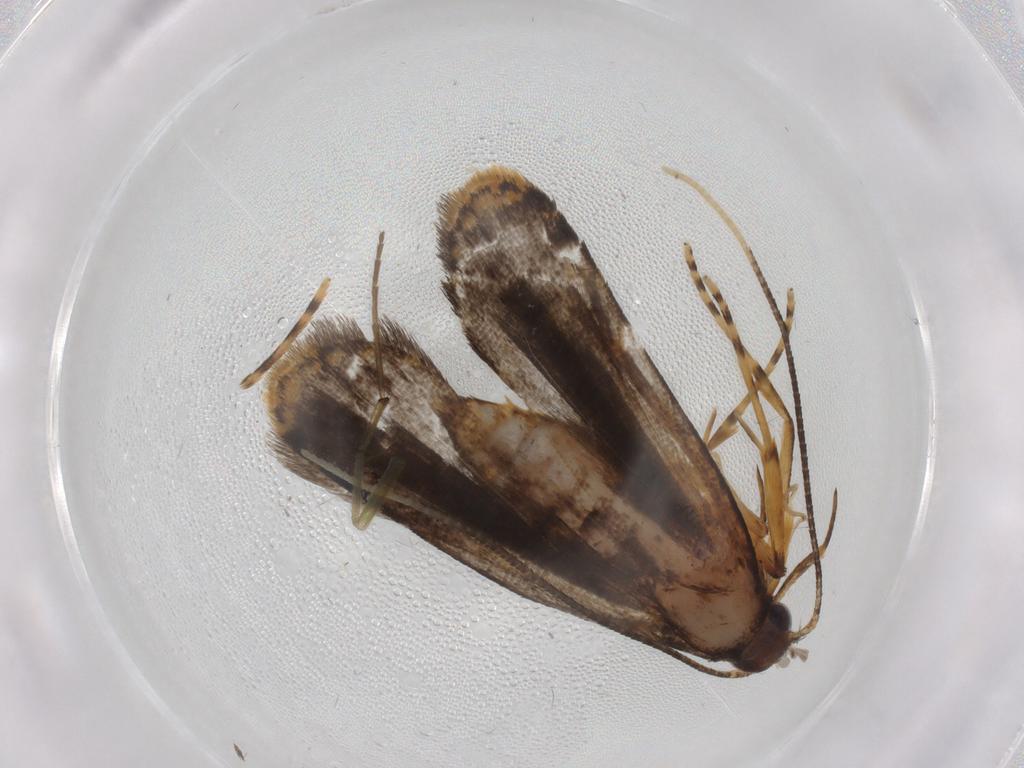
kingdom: Animalia
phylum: Arthropoda
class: Insecta
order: Lepidoptera
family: Cosmopterigidae
